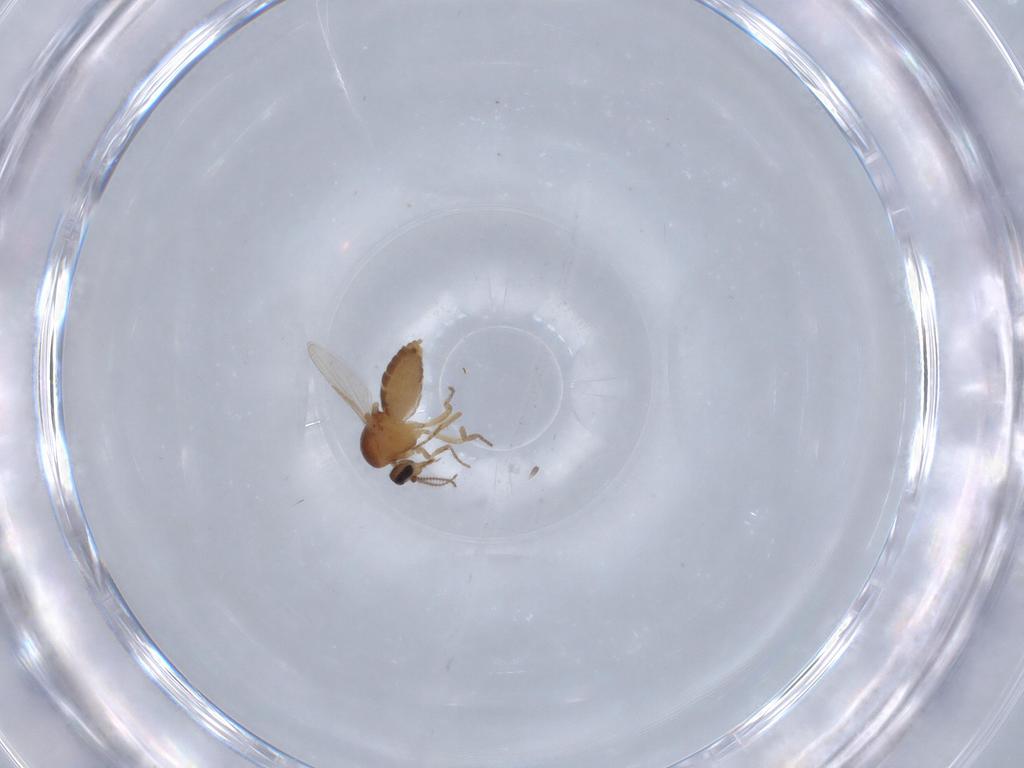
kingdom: Animalia
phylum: Arthropoda
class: Insecta
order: Diptera
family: Ceratopogonidae
